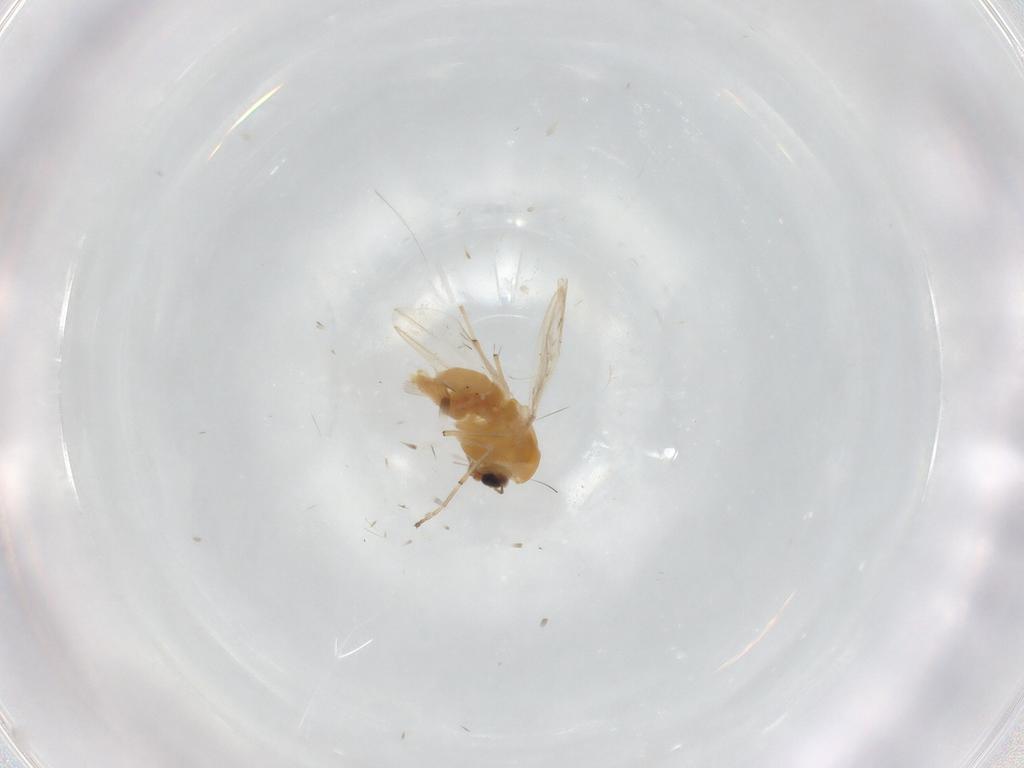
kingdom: Animalia
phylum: Arthropoda
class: Insecta
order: Diptera
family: Chironomidae
